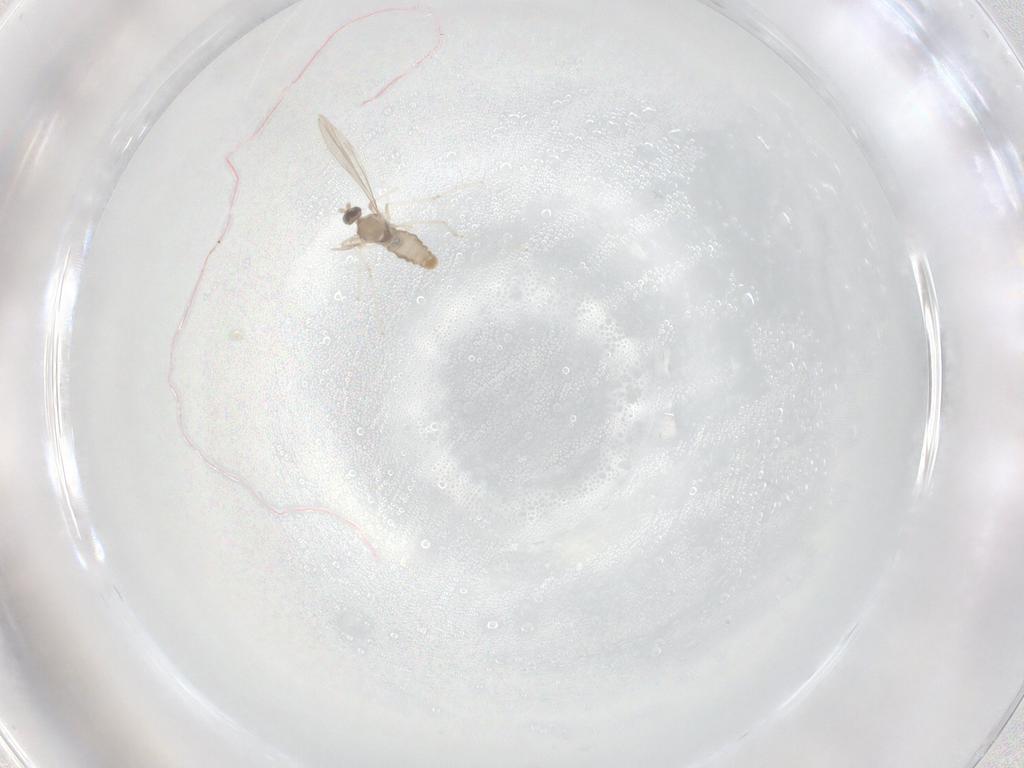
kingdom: Animalia
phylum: Arthropoda
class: Insecta
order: Diptera
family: Cecidomyiidae
